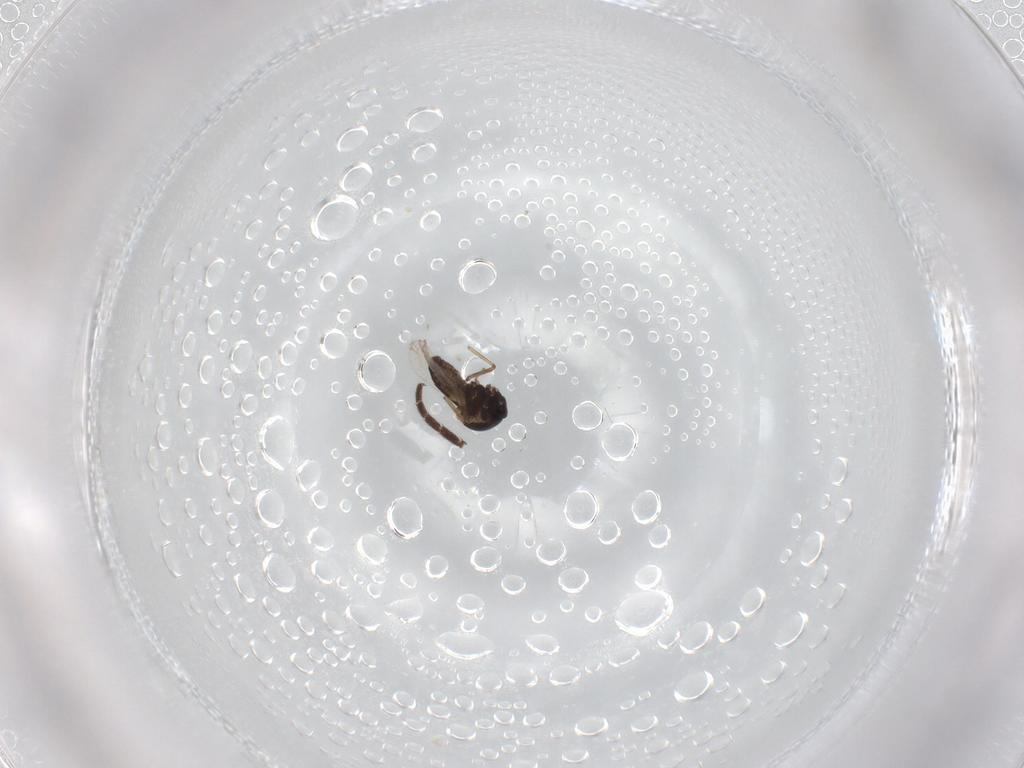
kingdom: Animalia
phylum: Arthropoda
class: Insecta
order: Diptera
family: Ceratopogonidae
